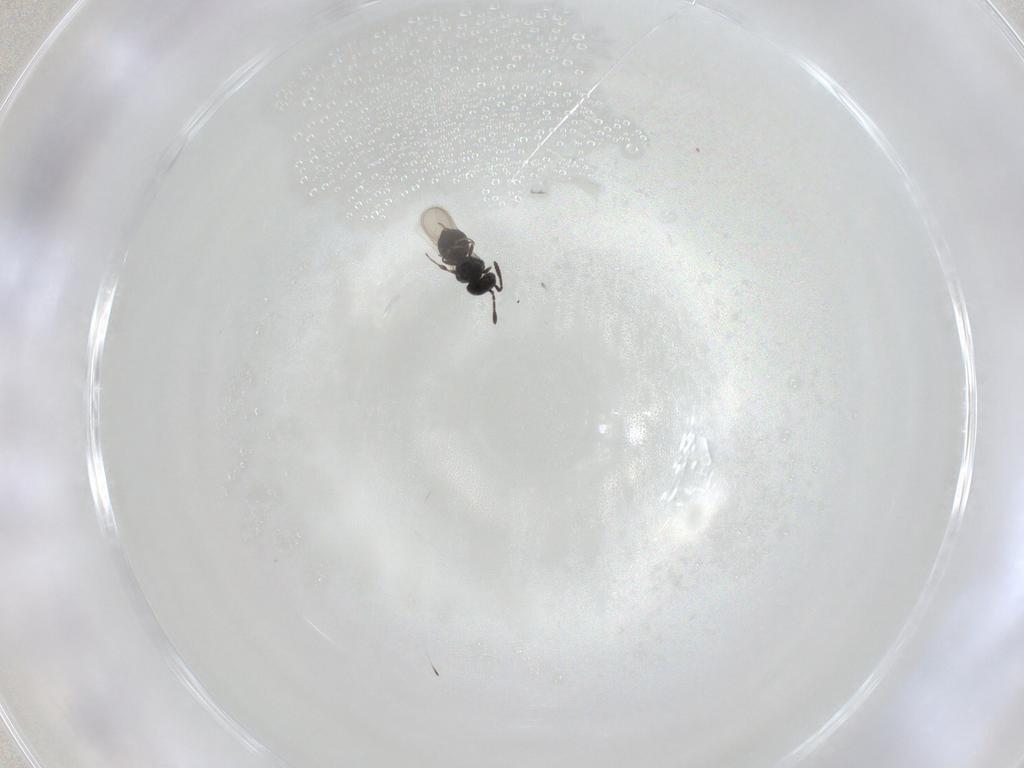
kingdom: Animalia
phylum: Arthropoda
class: Insecta
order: Hymenoptera
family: Scelionidae
